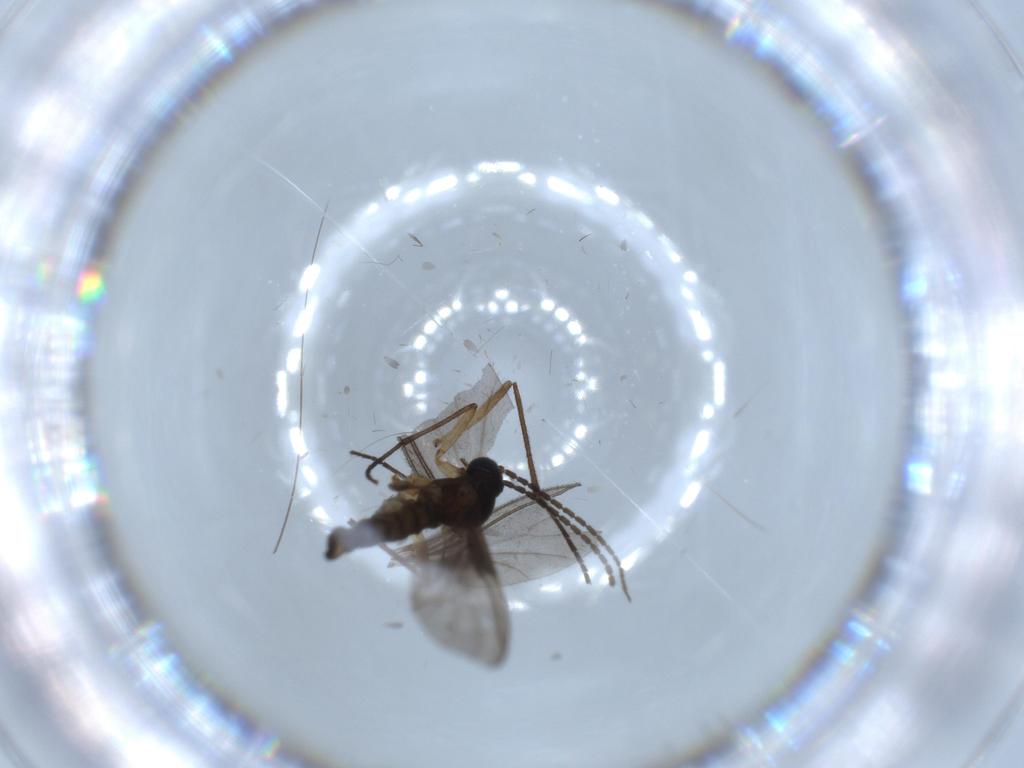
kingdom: Animalia
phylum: Arthropoda
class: Insecta
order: Diptera
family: Sciaridae
